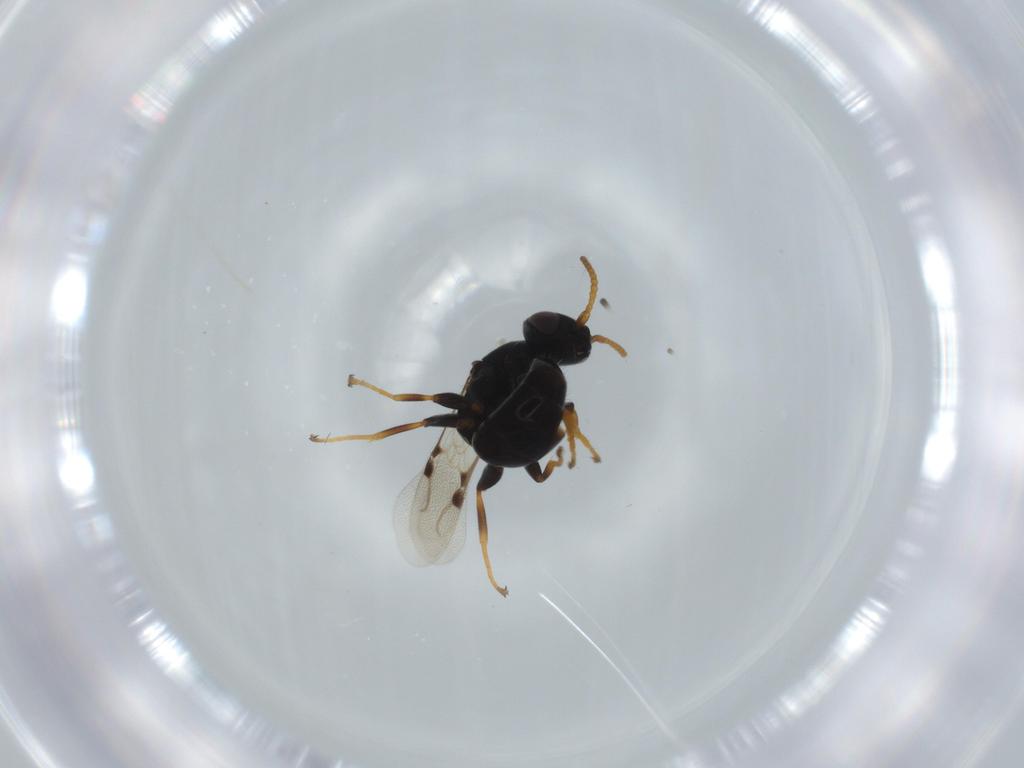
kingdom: Animalia
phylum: Arthropoda
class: Insecta
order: Hymenoptera
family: Bethylidae
